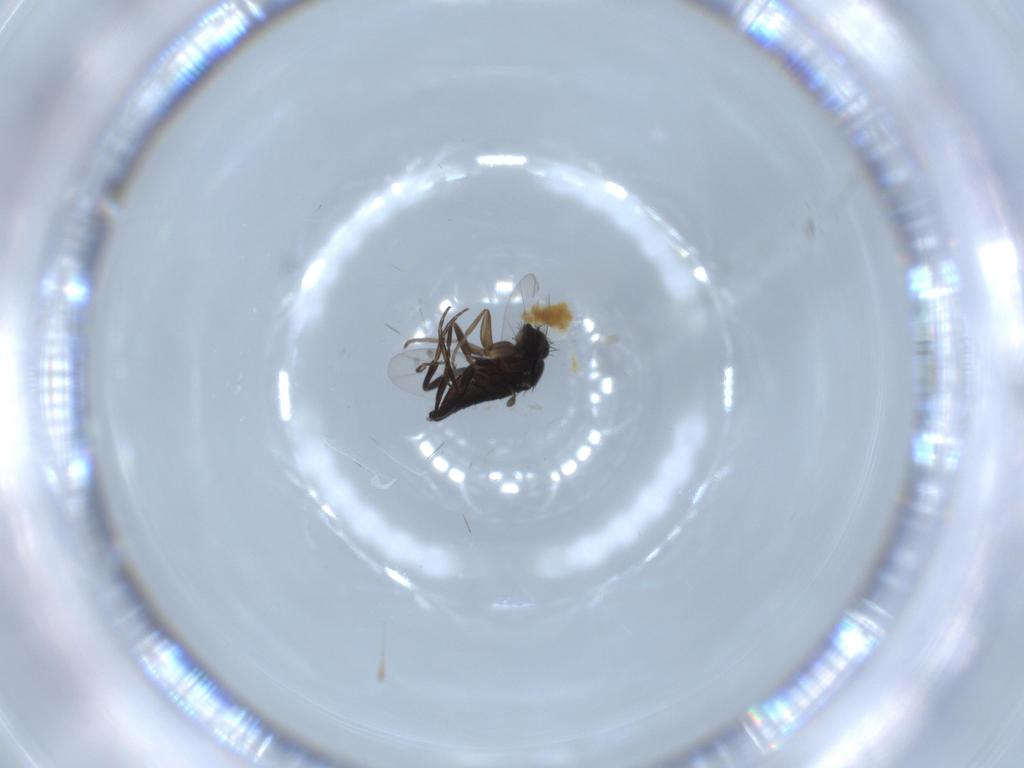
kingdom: Animalia
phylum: Arthropoda
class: Insecta
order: Diptera
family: Phoridae
